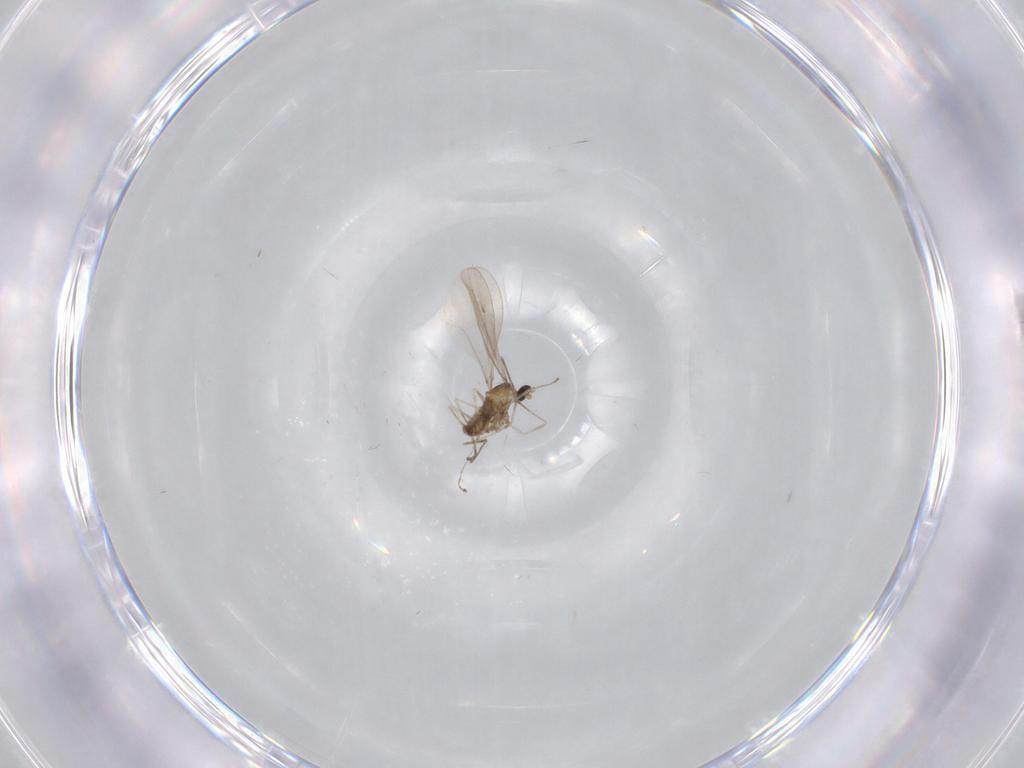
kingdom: Animalia
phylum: Arthropoda
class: Insecta
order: Diptera
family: Cecidomyiidae
